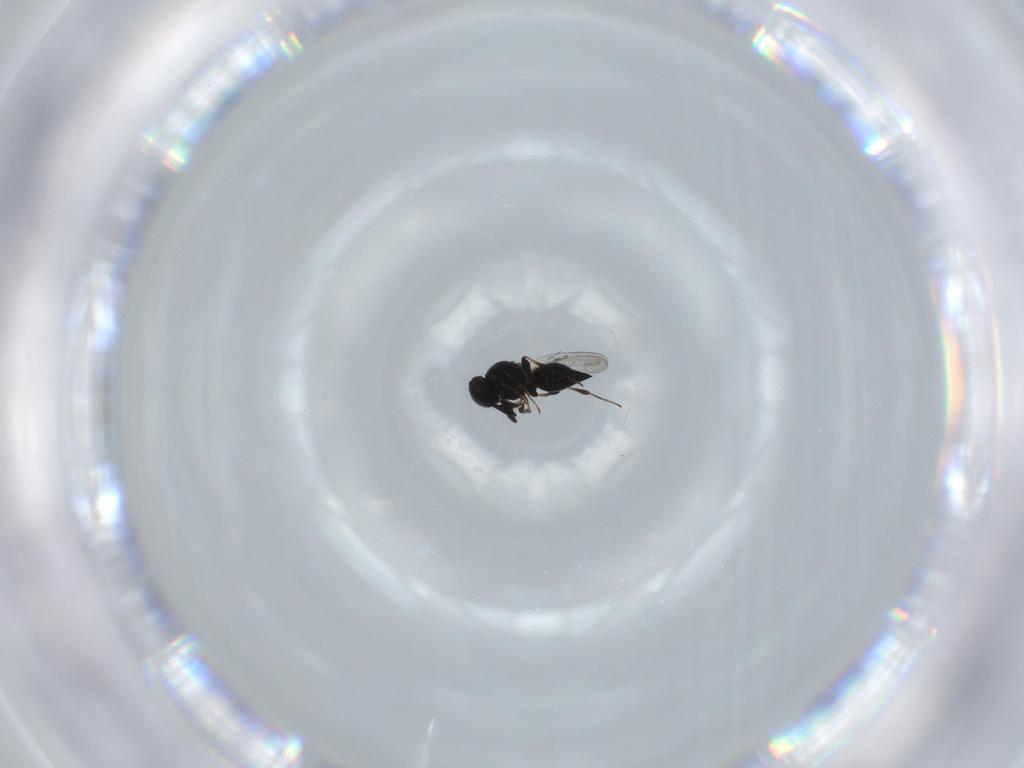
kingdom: Animalia
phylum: Arthropoda
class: Insecta
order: Hymenoptera
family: Platygastridae
